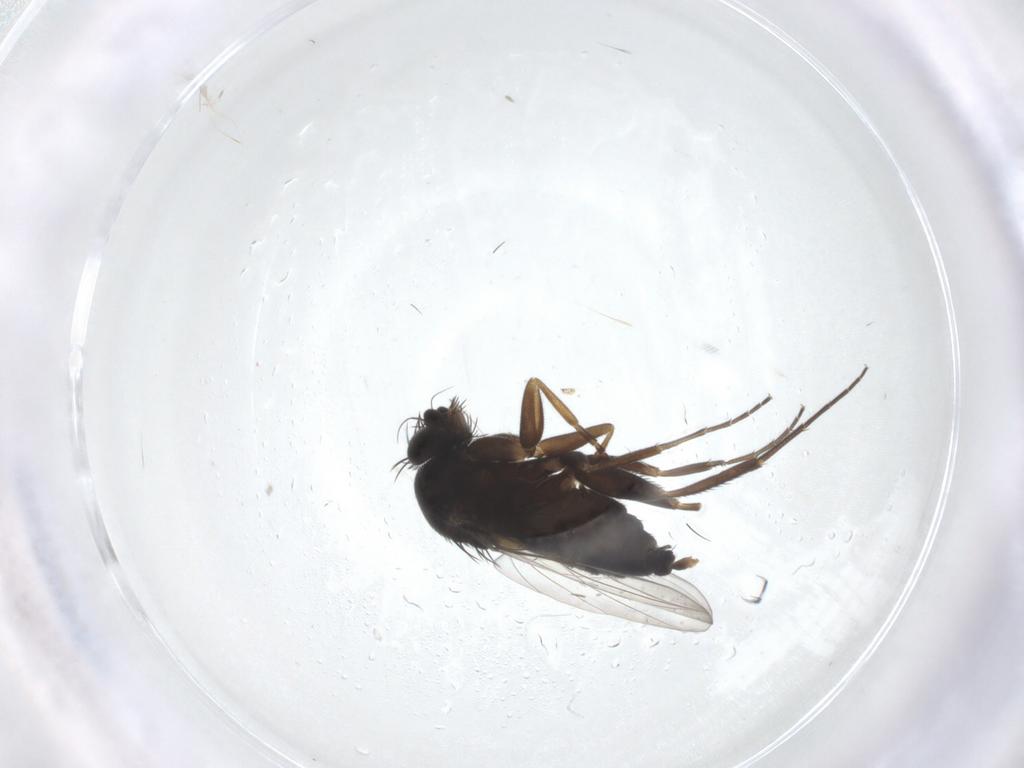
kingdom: Animalia
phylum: Arthropoda
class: Insecta
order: Diptera
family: Phoridae
